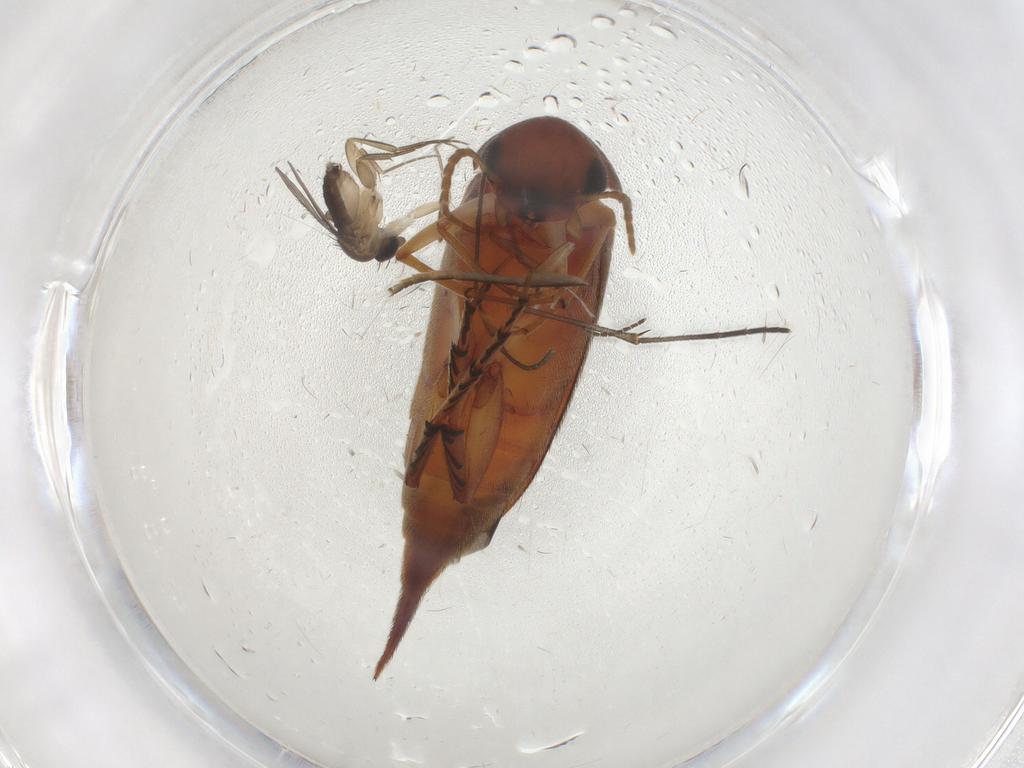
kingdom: Animalia
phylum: Arthropoda
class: Insecta
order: Coleoptera
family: Mordellidae
